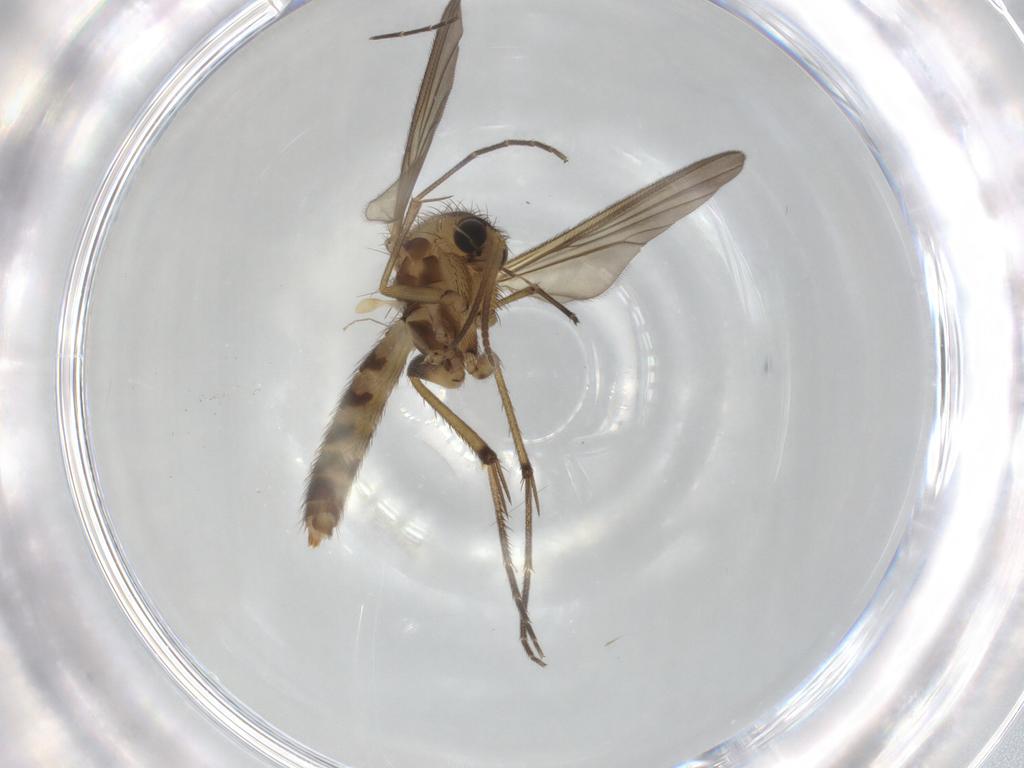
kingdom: Animalia
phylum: Arthropoda
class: Insecta
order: Diptera
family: Mycetophilidae
